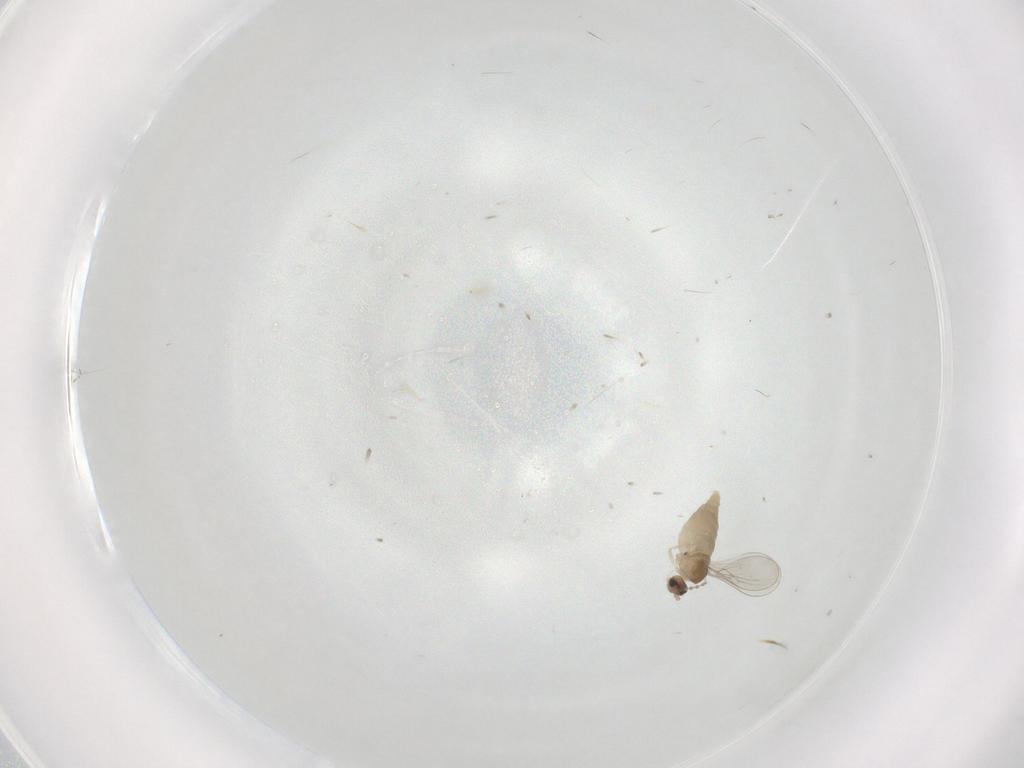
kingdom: Animalia
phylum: Arthropoda
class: Insecta
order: Diptera
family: Cecidomyiidae
